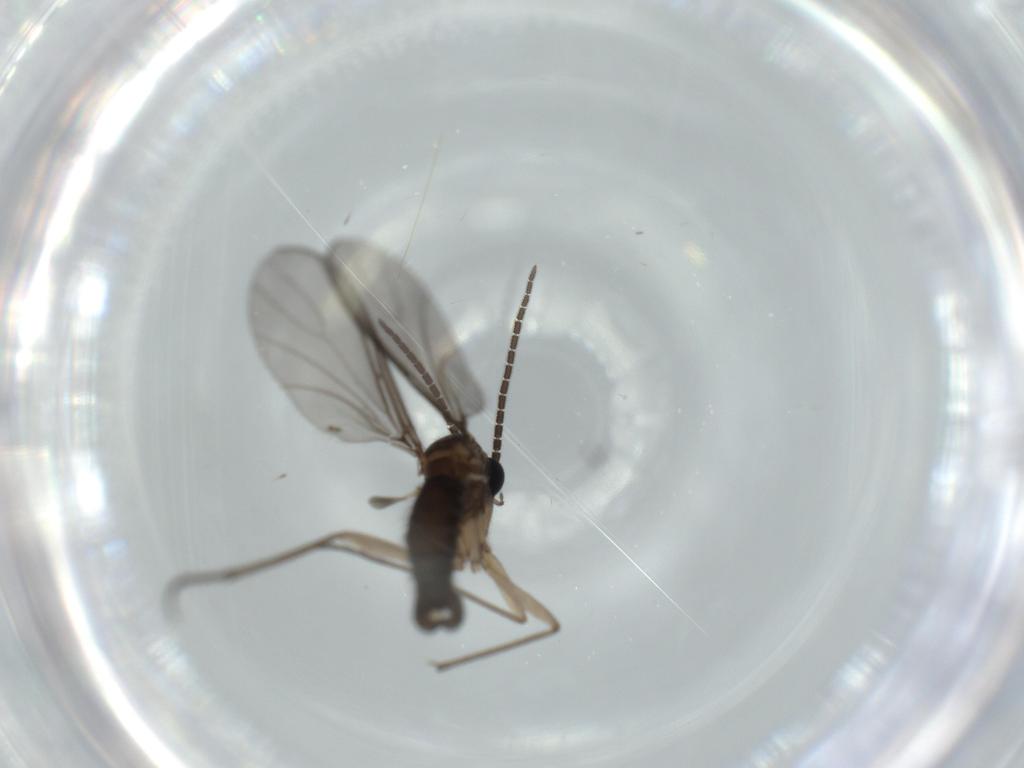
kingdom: Animalia
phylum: Arthropoda
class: Insecta
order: Diptera
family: Sciaridae
